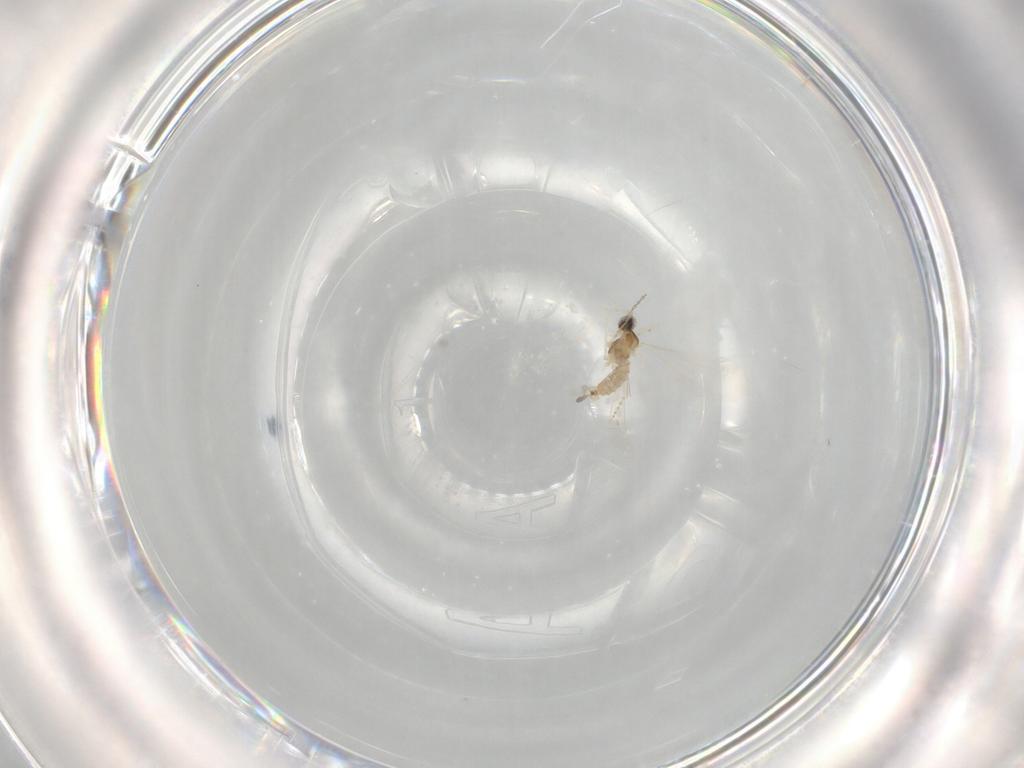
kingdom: Animalia
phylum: Arthropoda
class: Insecta
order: Diptera
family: Cecidomyiidae
